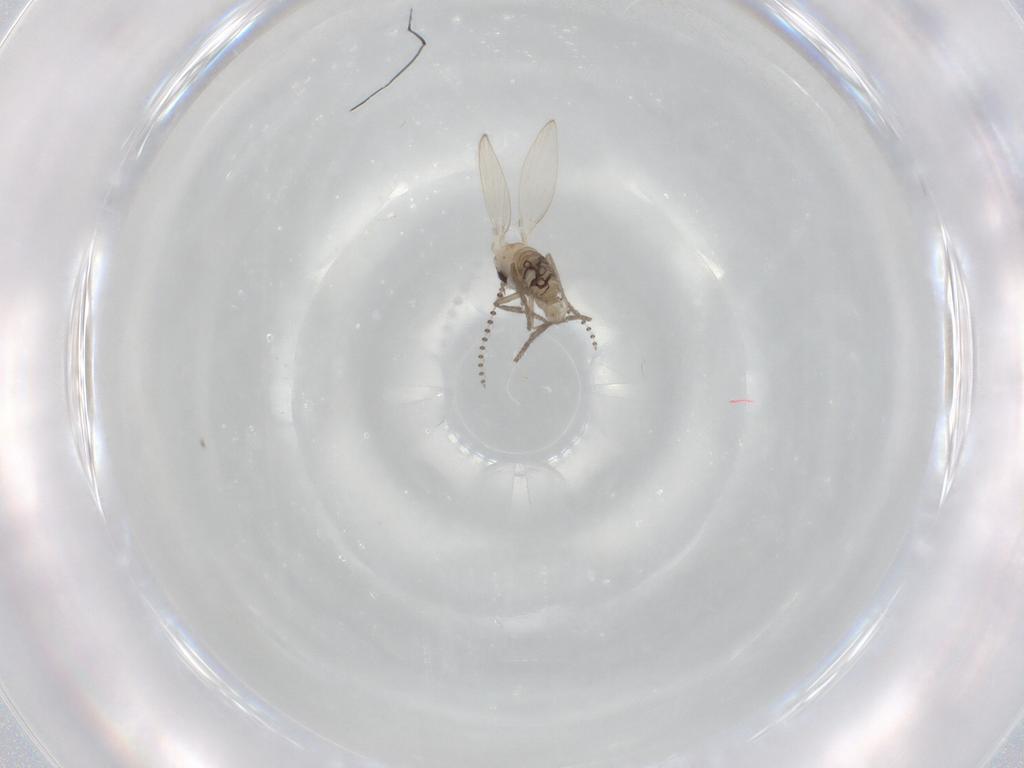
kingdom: Animalia
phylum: Arthropoda
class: Insecta
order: Diptera
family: Psychodidae
